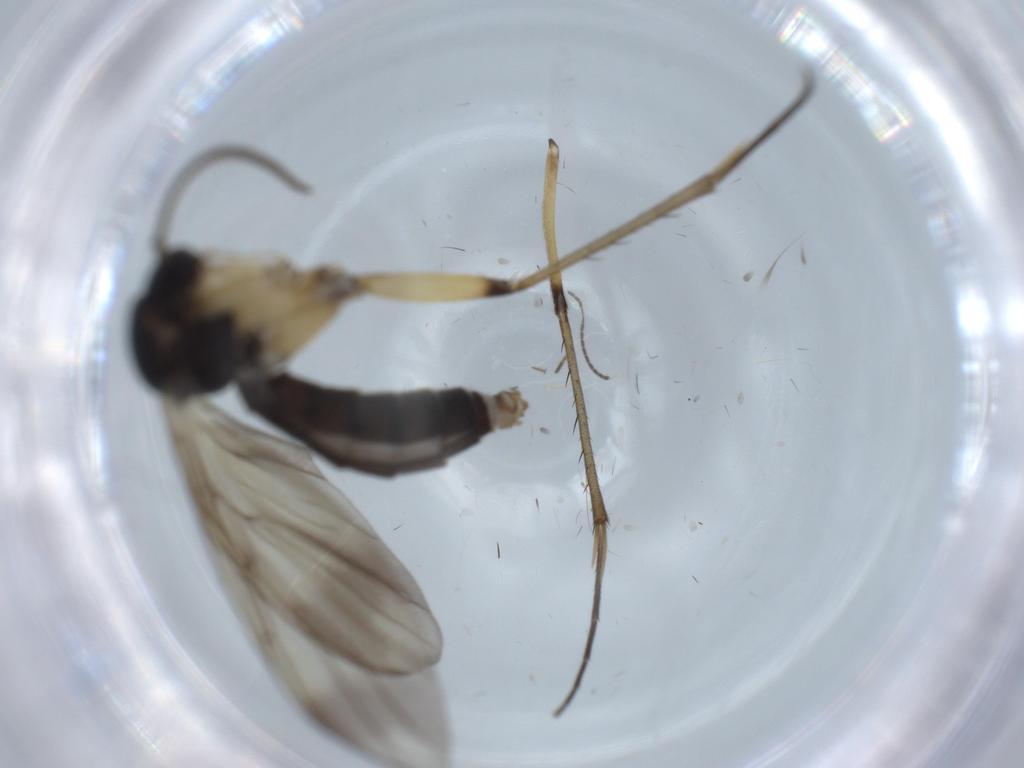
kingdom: Animalia
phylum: Arthropoda
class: Insecta
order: Diptera
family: Mycetophilidae
